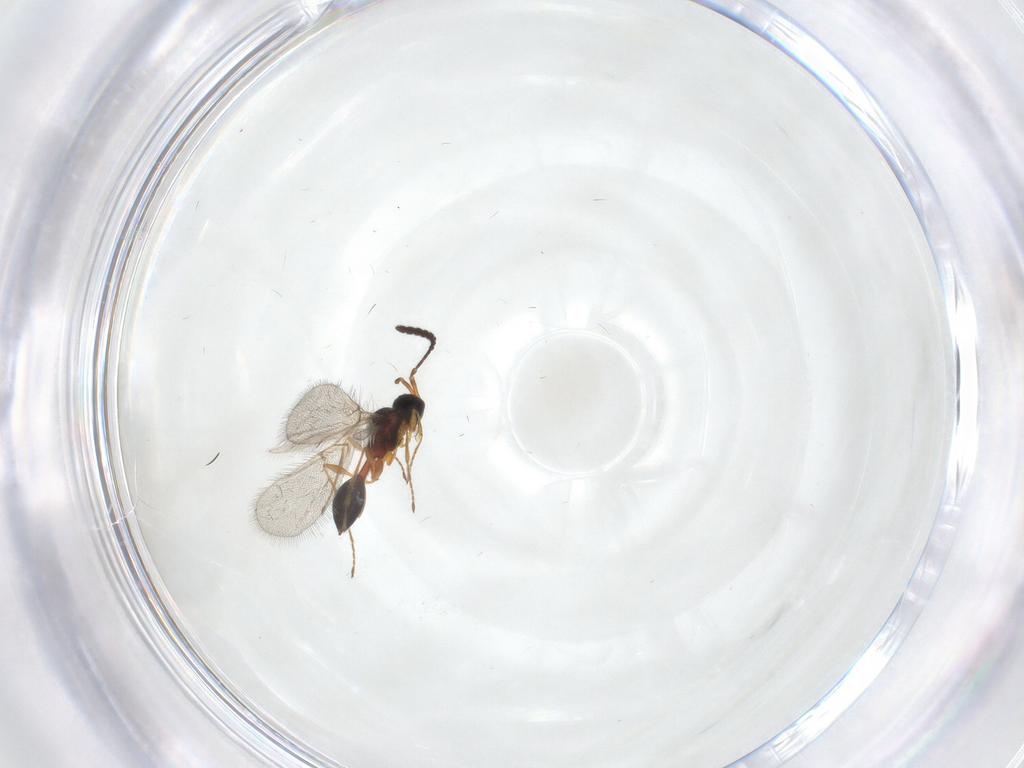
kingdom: Animalia
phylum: Arthropoda
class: Insecta
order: Hymenoptera
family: Diapriidae
